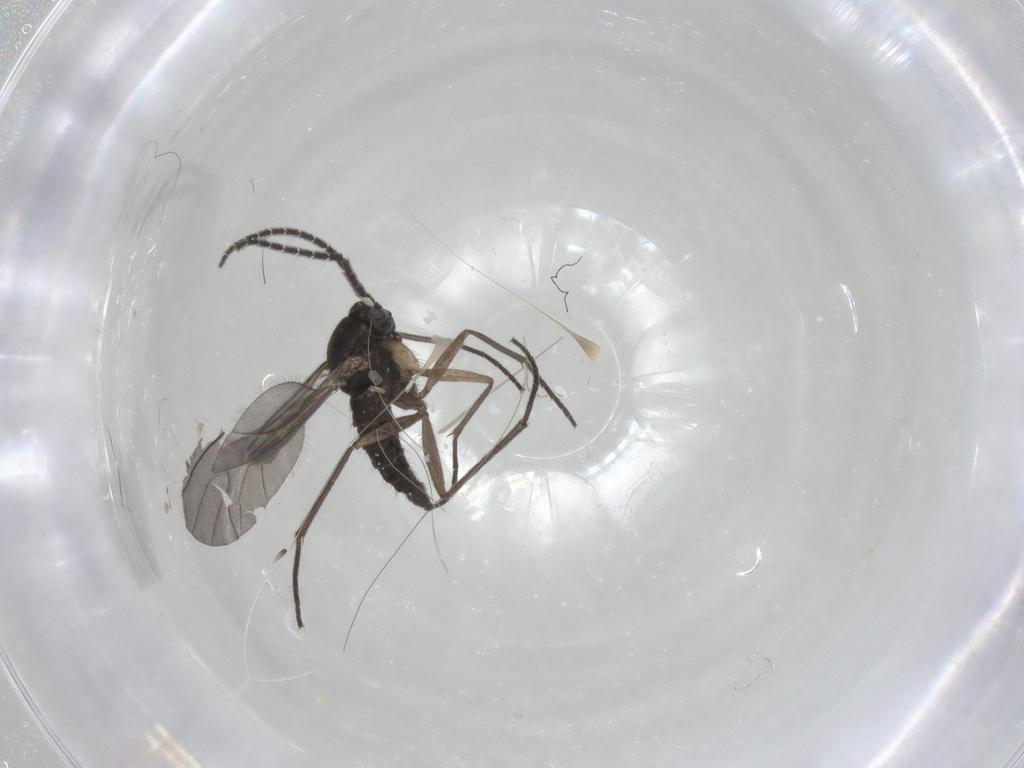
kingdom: Animalia
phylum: Arthropoda
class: Insecta
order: Diptera
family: Sciaridae
